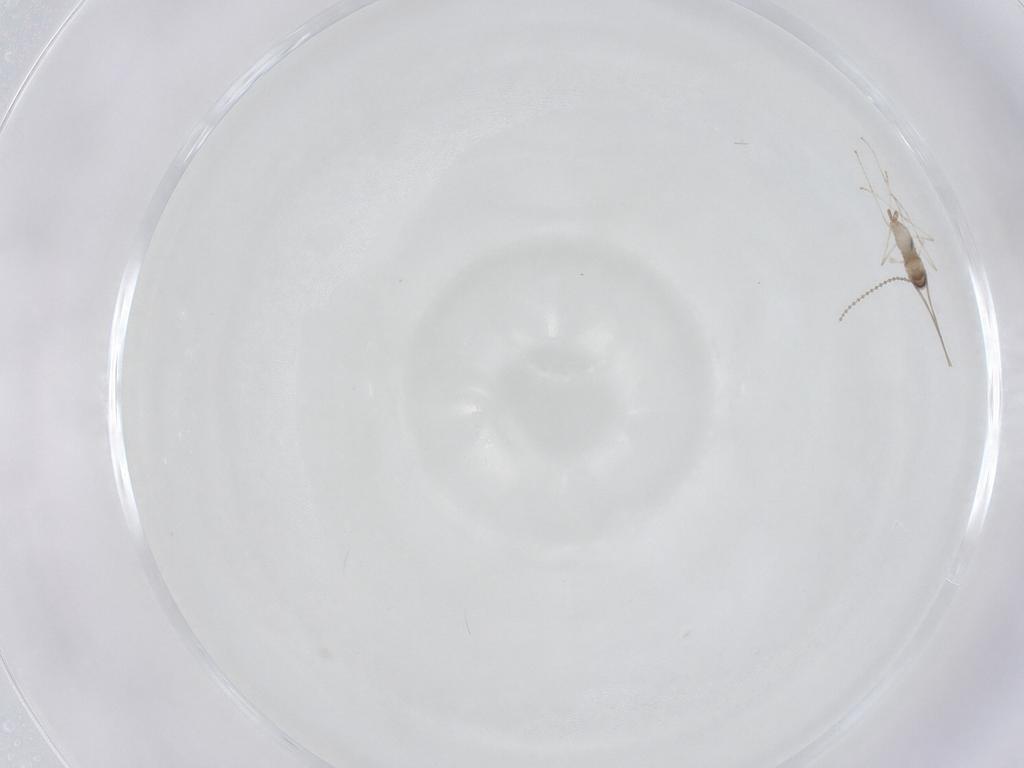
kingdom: Animalia
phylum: Arthropoda
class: Insecta
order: Diptera
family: Cecidomyiidae
